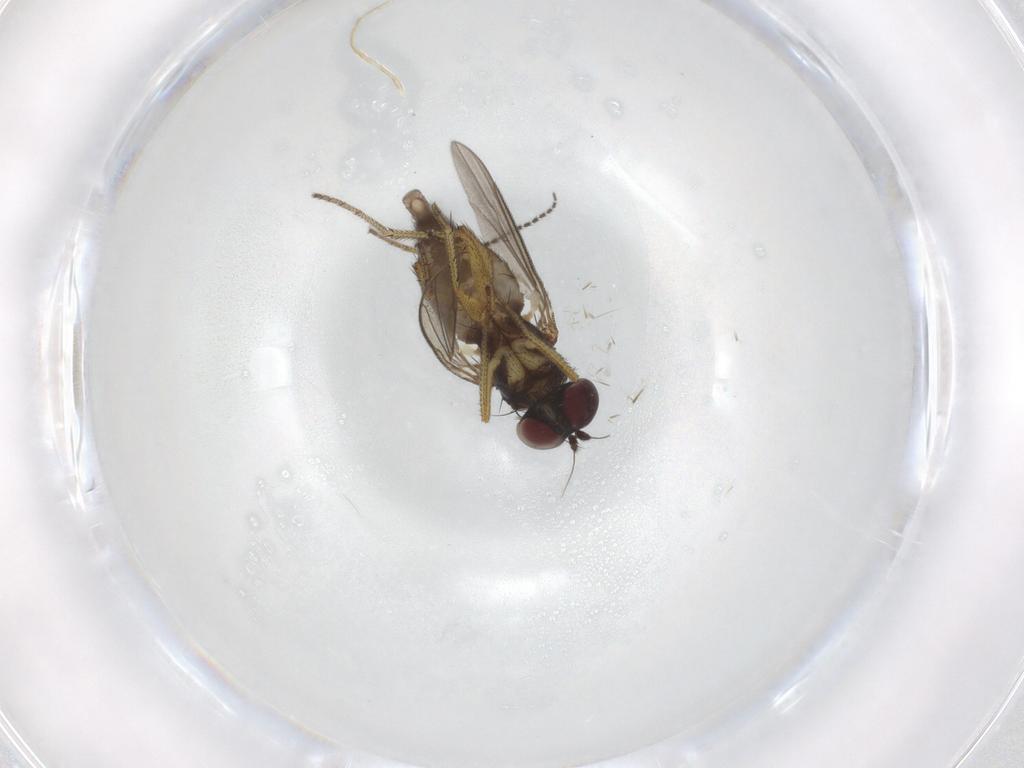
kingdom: Animalia
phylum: Arthropoda
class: Insecta
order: Diptera
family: Dolichopodidae
